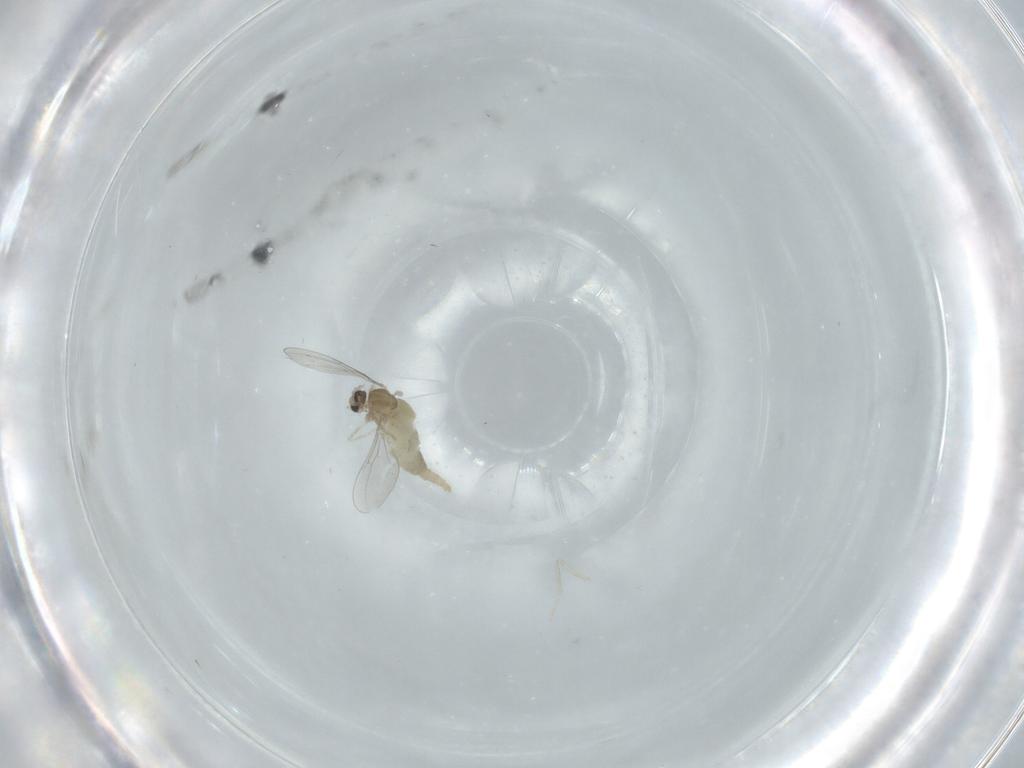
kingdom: Animalia
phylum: Arthropoda
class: Insecta
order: Diptera
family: Cecidomyiidae
